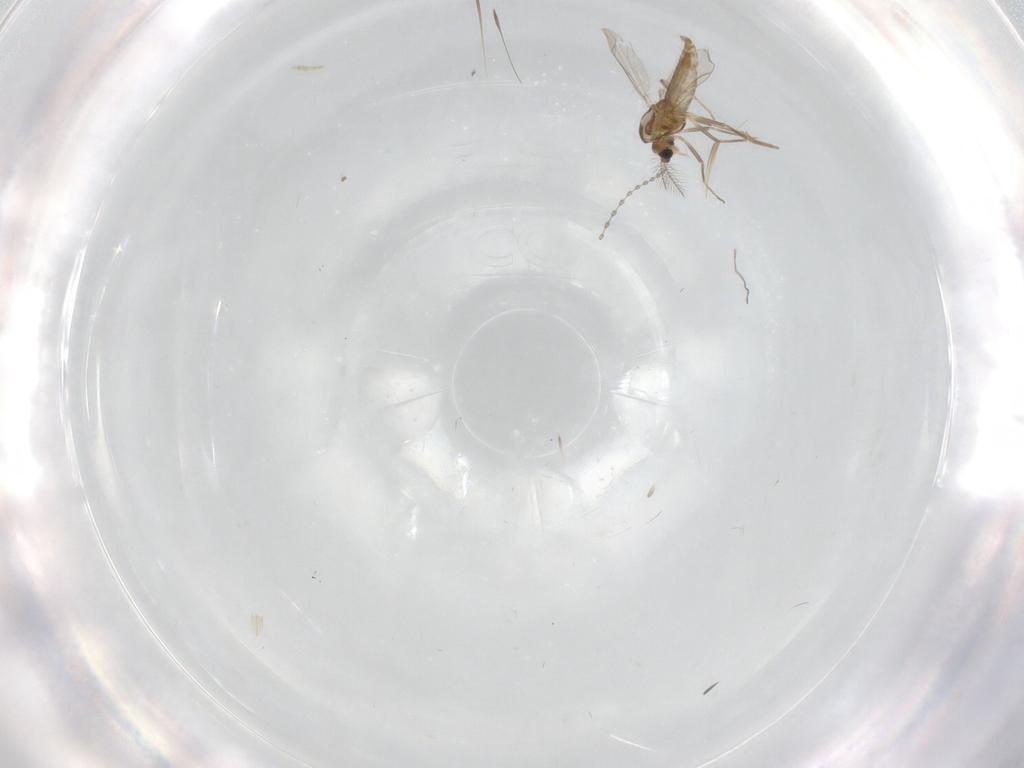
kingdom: Animalia
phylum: Arthropoda
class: Insecta
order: Diptera
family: Chironomidae
